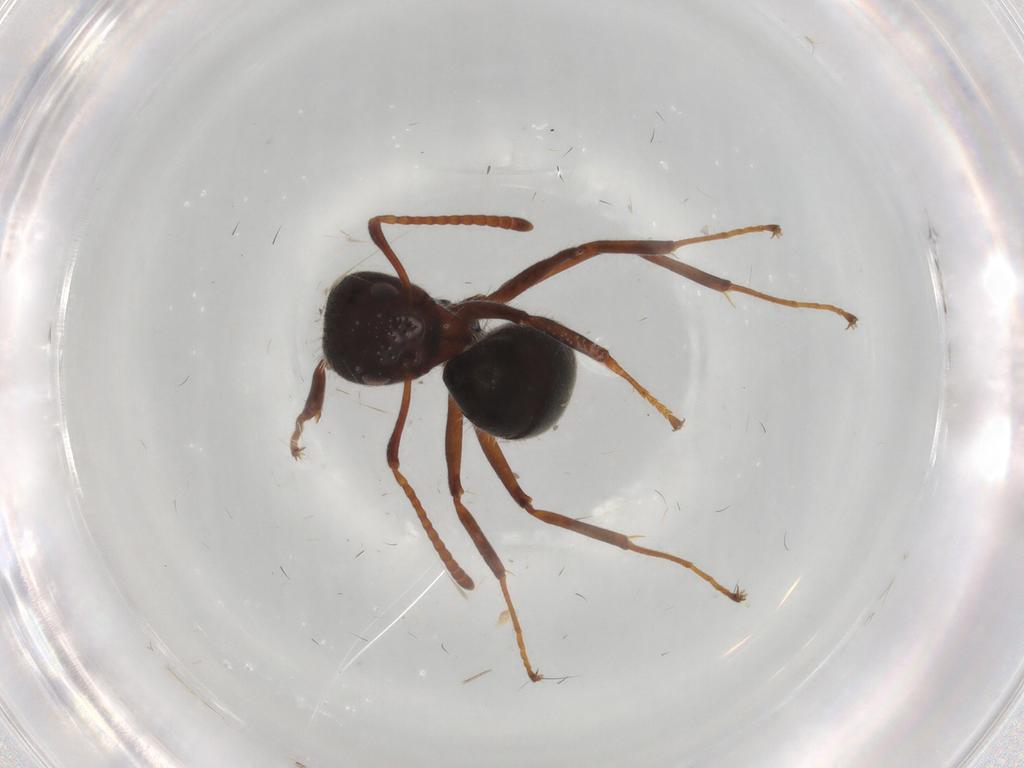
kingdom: Animalia
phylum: Arthropoda
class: Insecta
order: Hymenoptera
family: Formicidae
